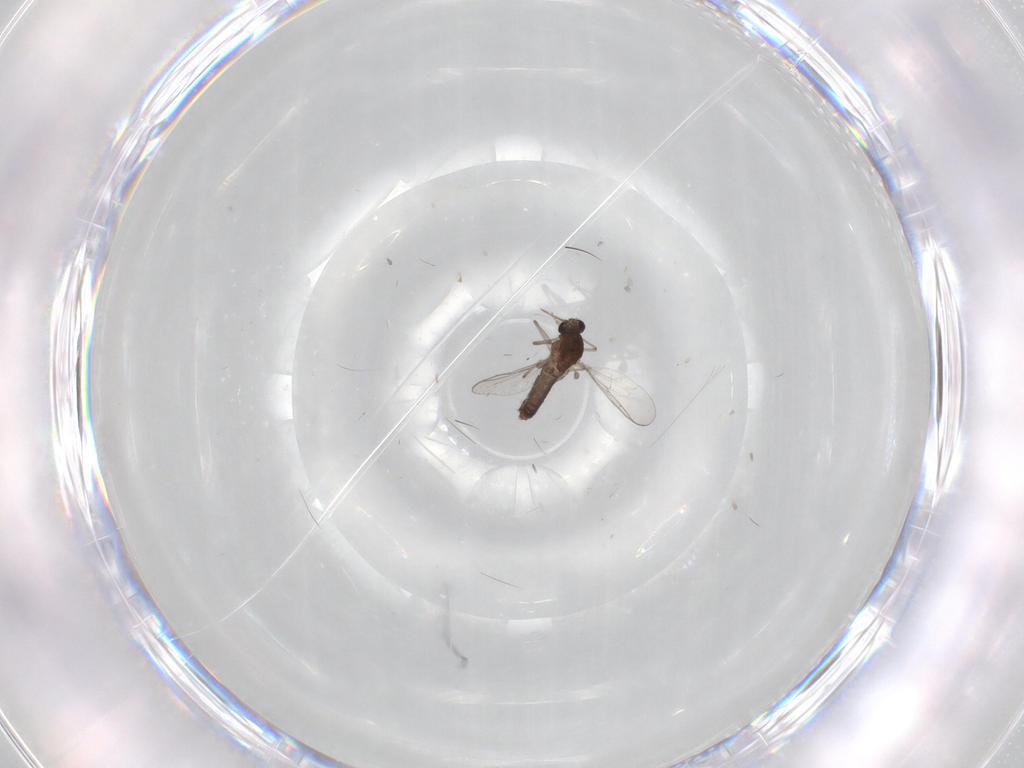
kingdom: Animalia
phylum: Arthropoda
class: Insecta
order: Diptera
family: Chironomidae
